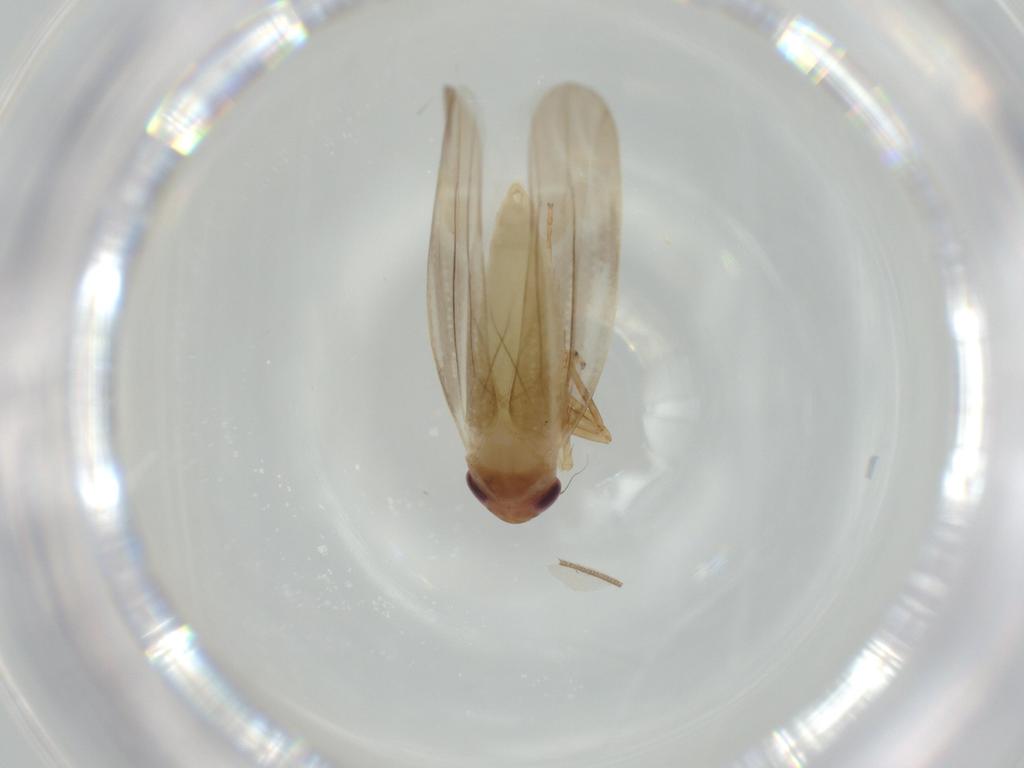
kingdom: Animalia
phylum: Arthropoda
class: Insecta
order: Hemiptera
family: Cicadellidae
